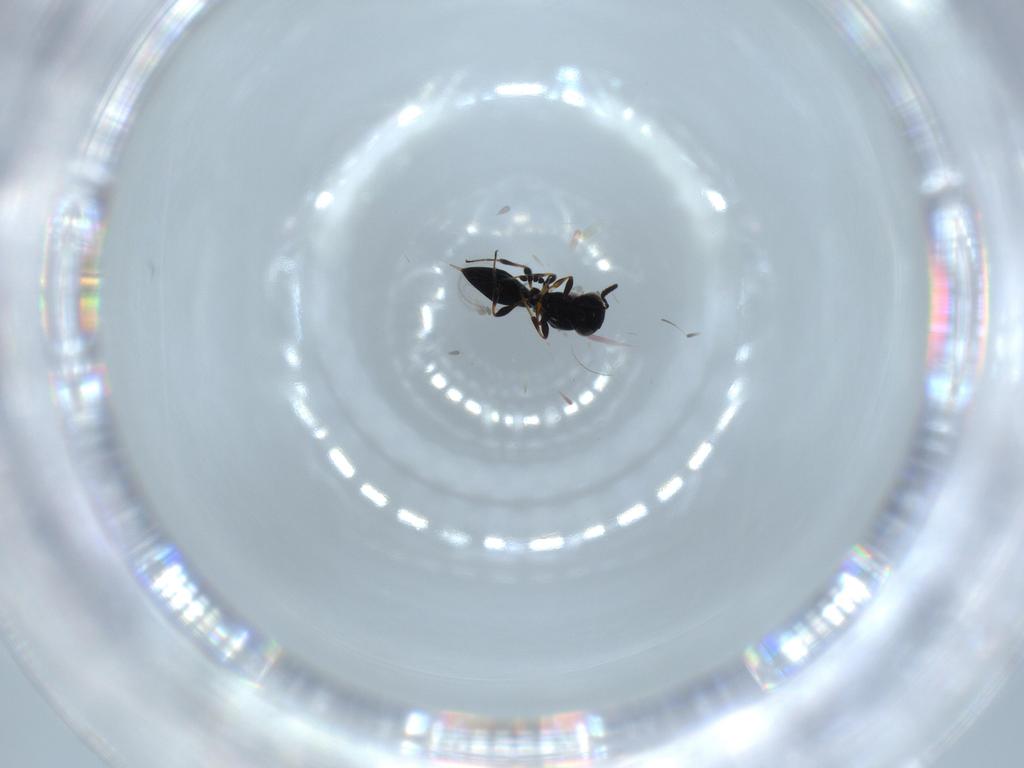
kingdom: Animalia
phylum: Arthropoda
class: Insecta
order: Hymenoptera
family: Platygastridae
